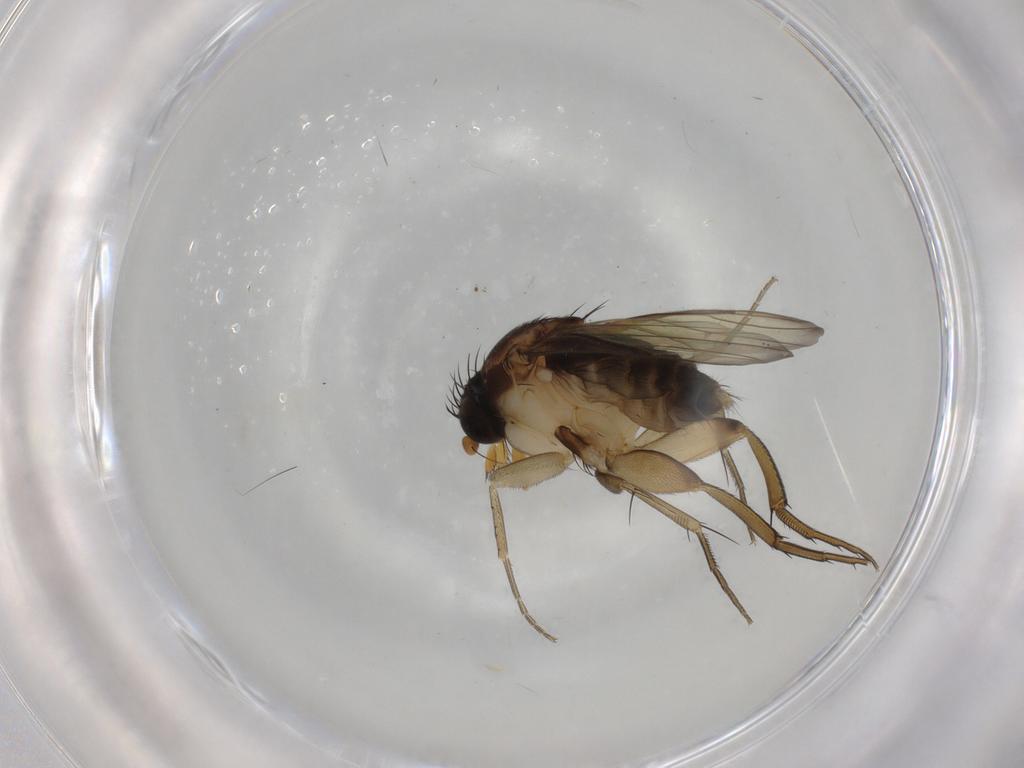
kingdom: Animalia
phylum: Arthropoda
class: Insecta
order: Diptera
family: Phoridae
